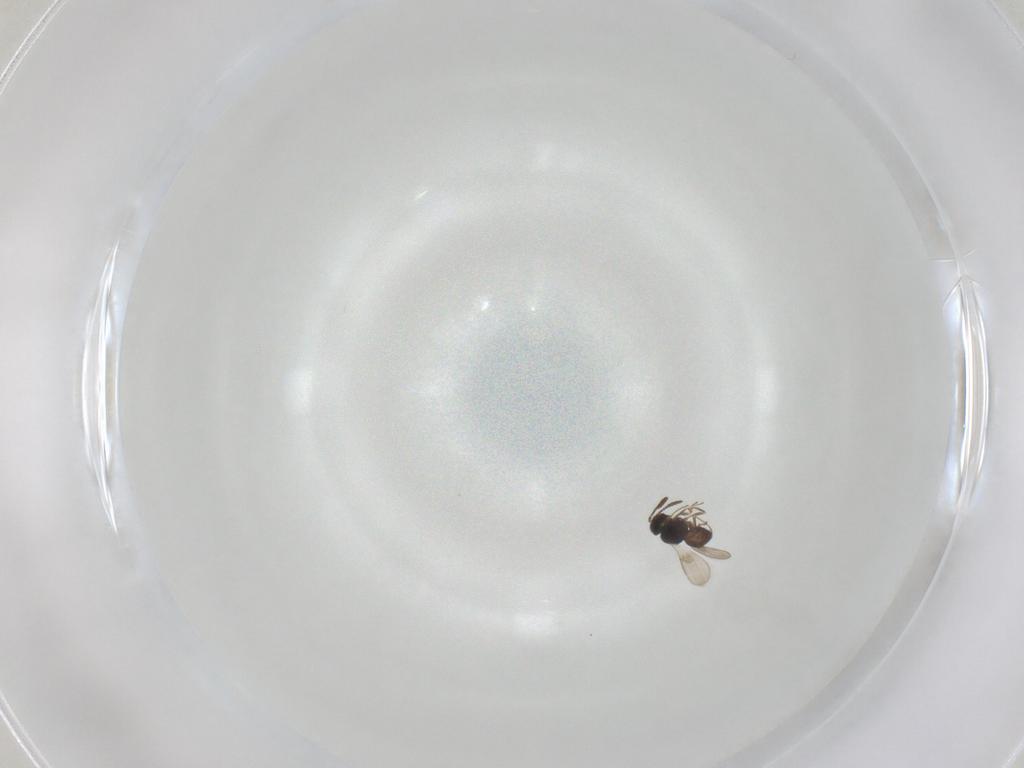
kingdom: Animalia
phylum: Arthropoda
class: Insecta
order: Hymenoptera
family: Scelionidae
